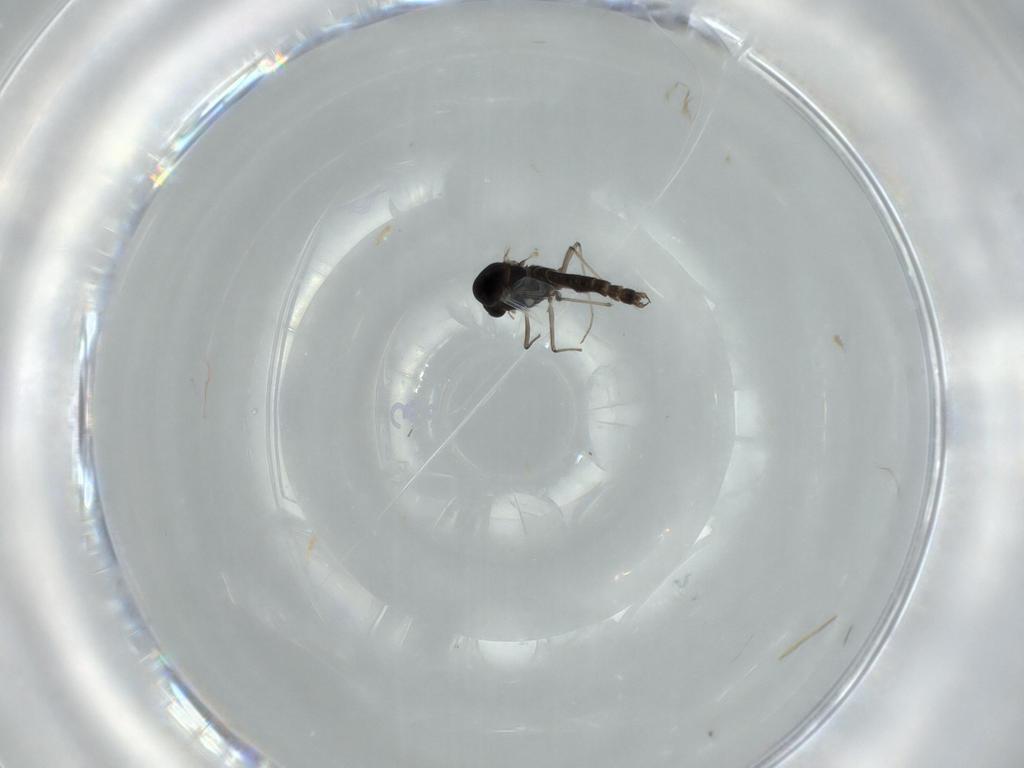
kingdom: Animalia
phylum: Arthropoda
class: Insecta
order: Diptera
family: Chironomidae
